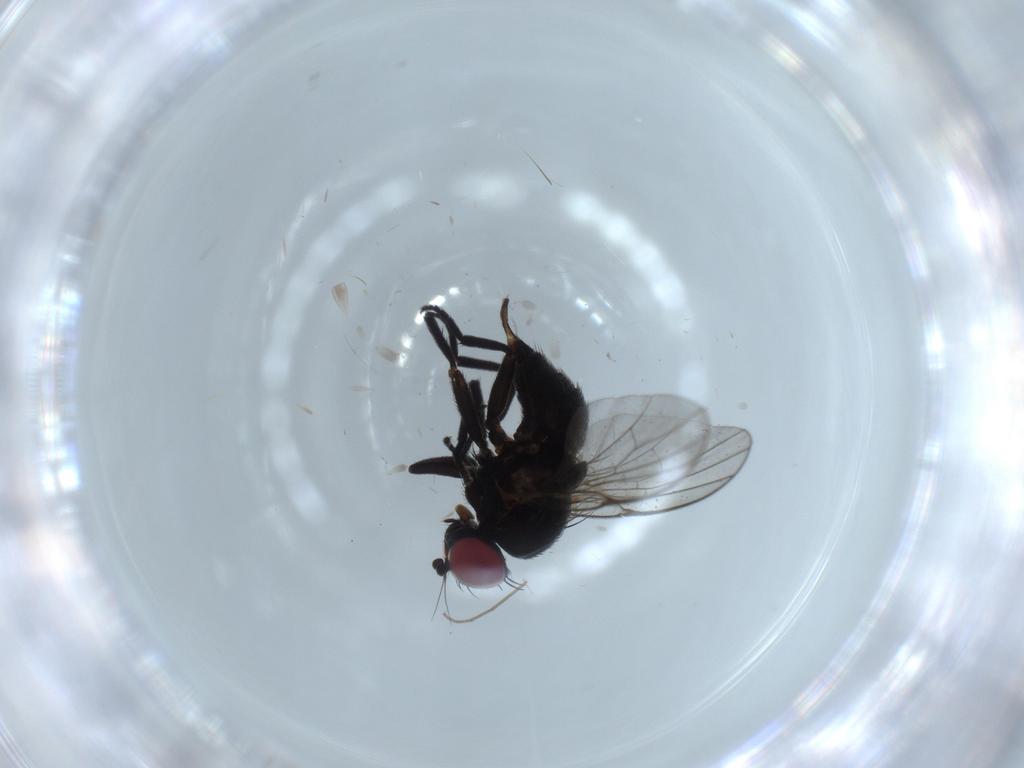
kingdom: Animalia
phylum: Arthropoda
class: Insecta
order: Diptera
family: Agromyzidae
